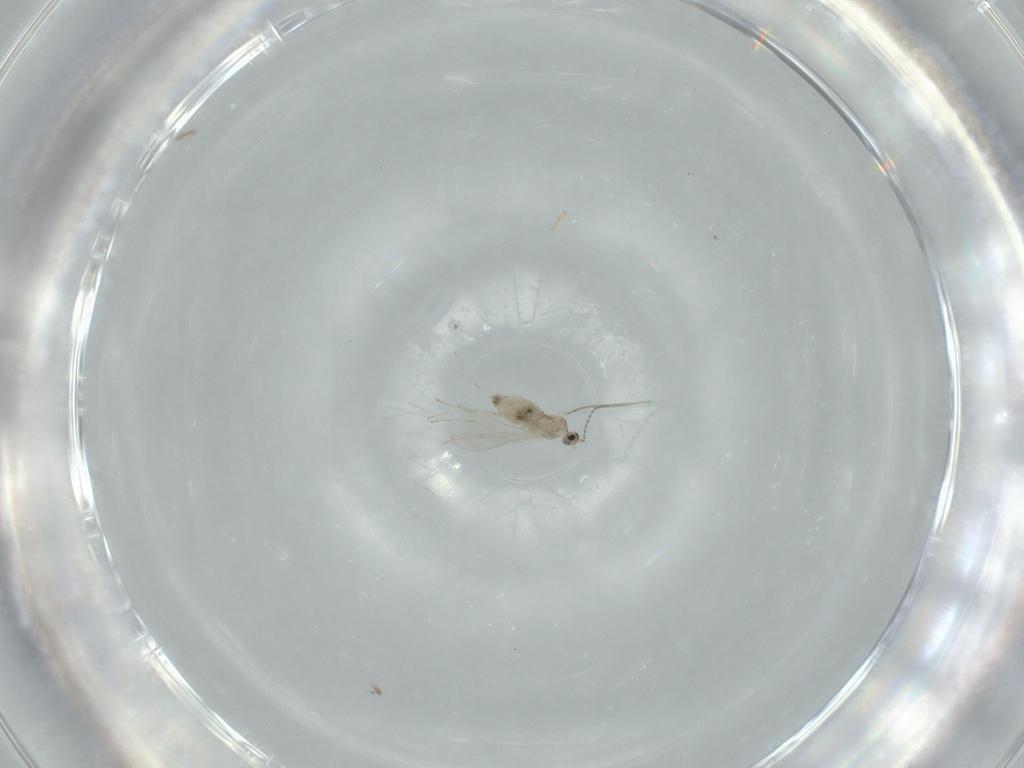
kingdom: Animalia
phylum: Arthropoda
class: Insecta
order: Diptera
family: Cecidomyiidae
